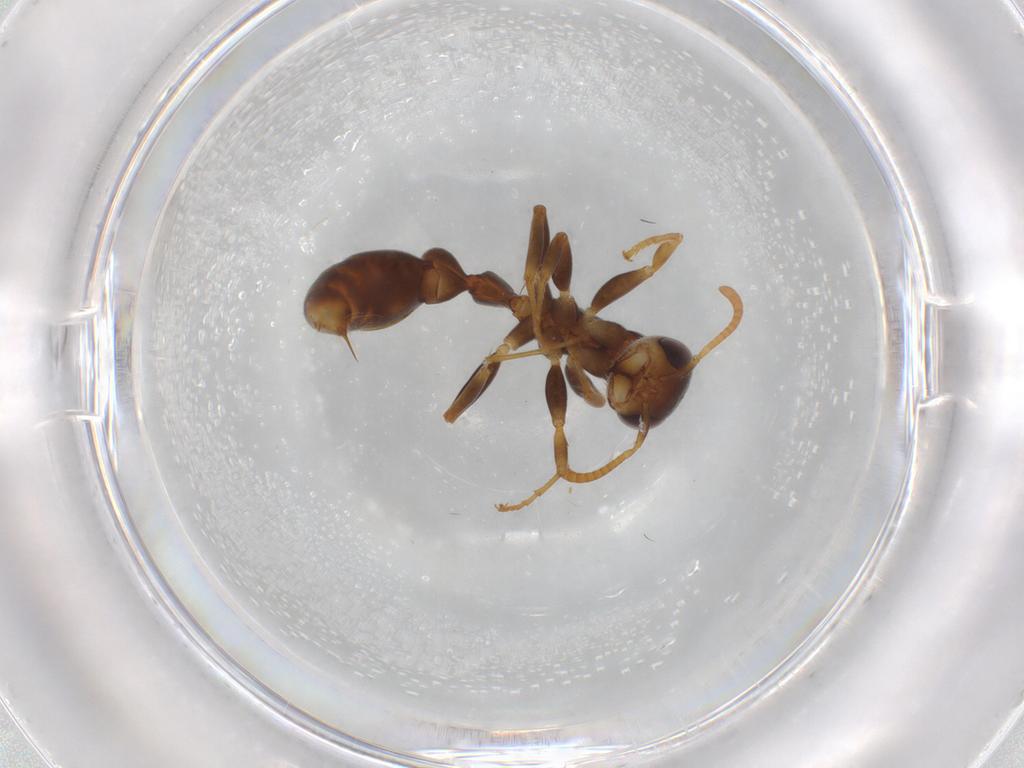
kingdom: Animalia
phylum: Arthropoda
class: Insecta
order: Hymenoptera
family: Formicidae
